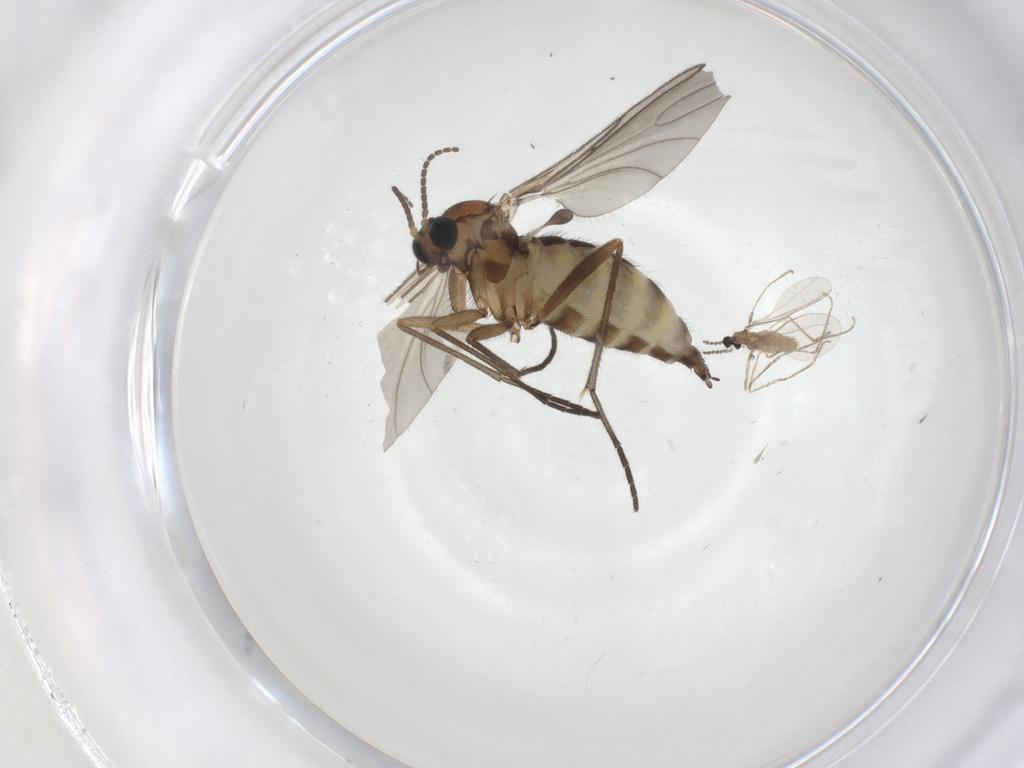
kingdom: Animalia
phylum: Arthropoda
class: Insecta
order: Diptera
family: Sciaridae
